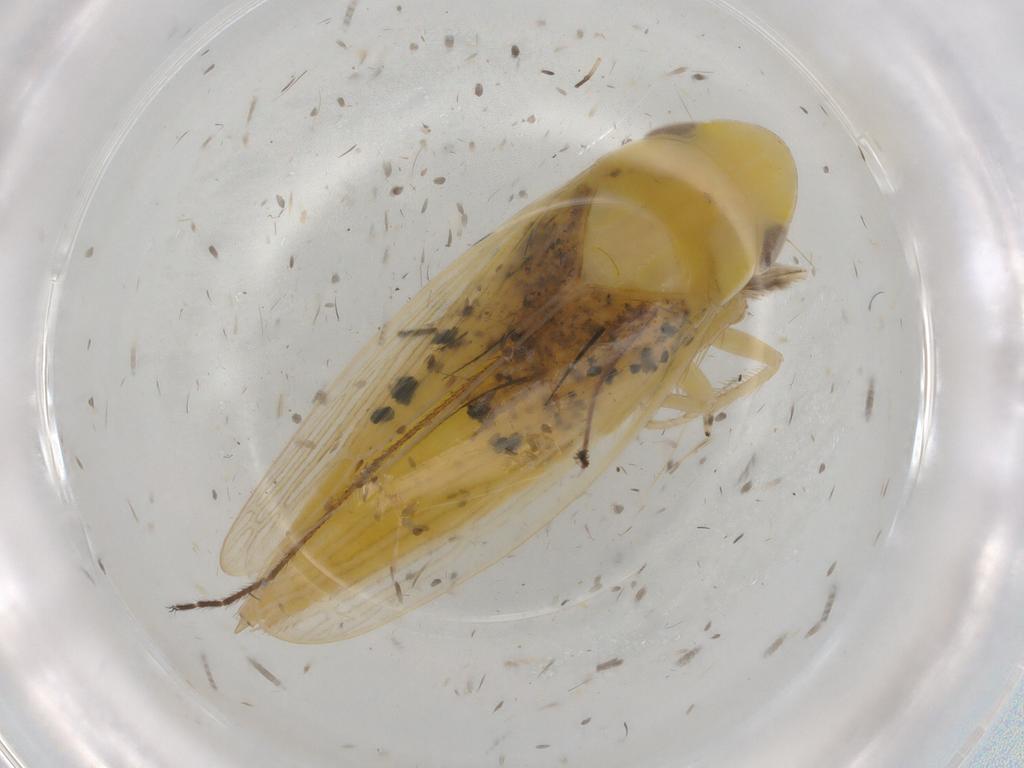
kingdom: Animalia
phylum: Arthropoda
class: Insecta
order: Hemiptera
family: Cicadellidae
